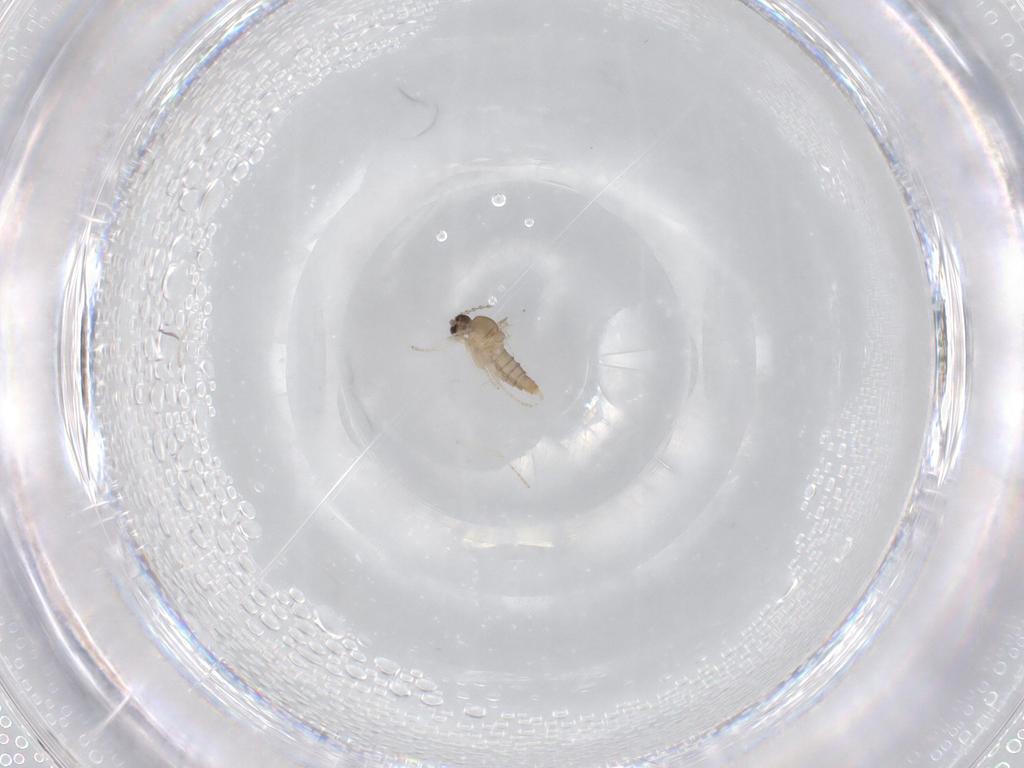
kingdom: Animalia
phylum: Arthropoda
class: Insecta
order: Diptera
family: Cecidomyiidae
